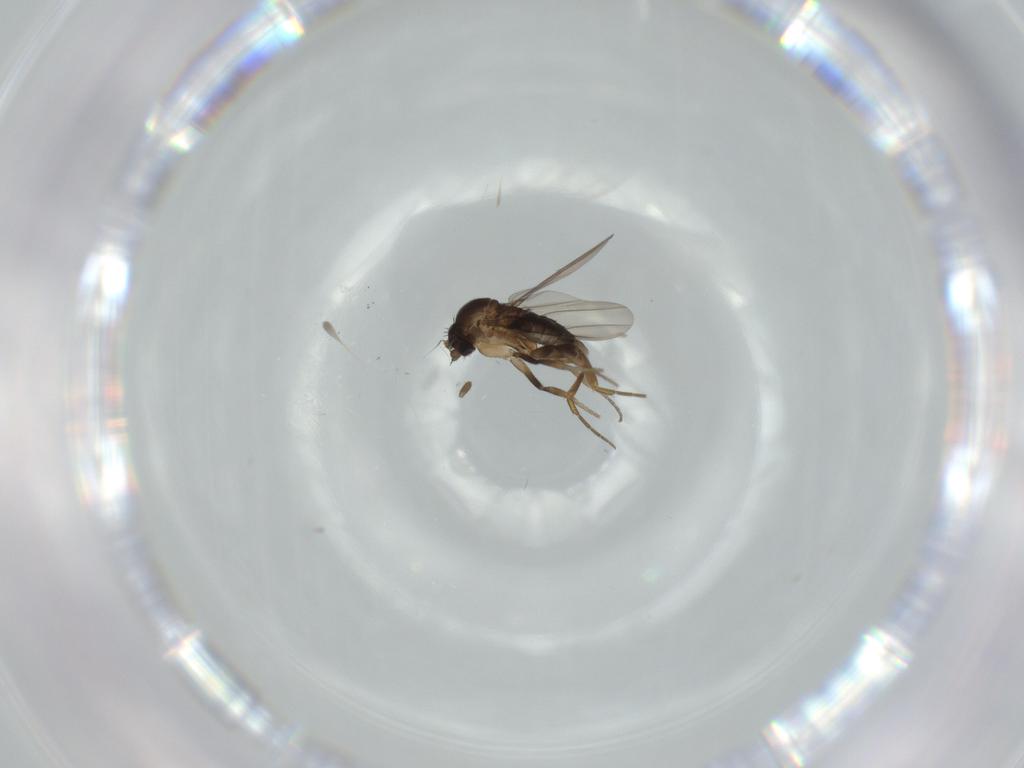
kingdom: Animalia
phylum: Arthropoda
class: Insecta
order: Diptera
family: Phoridae
